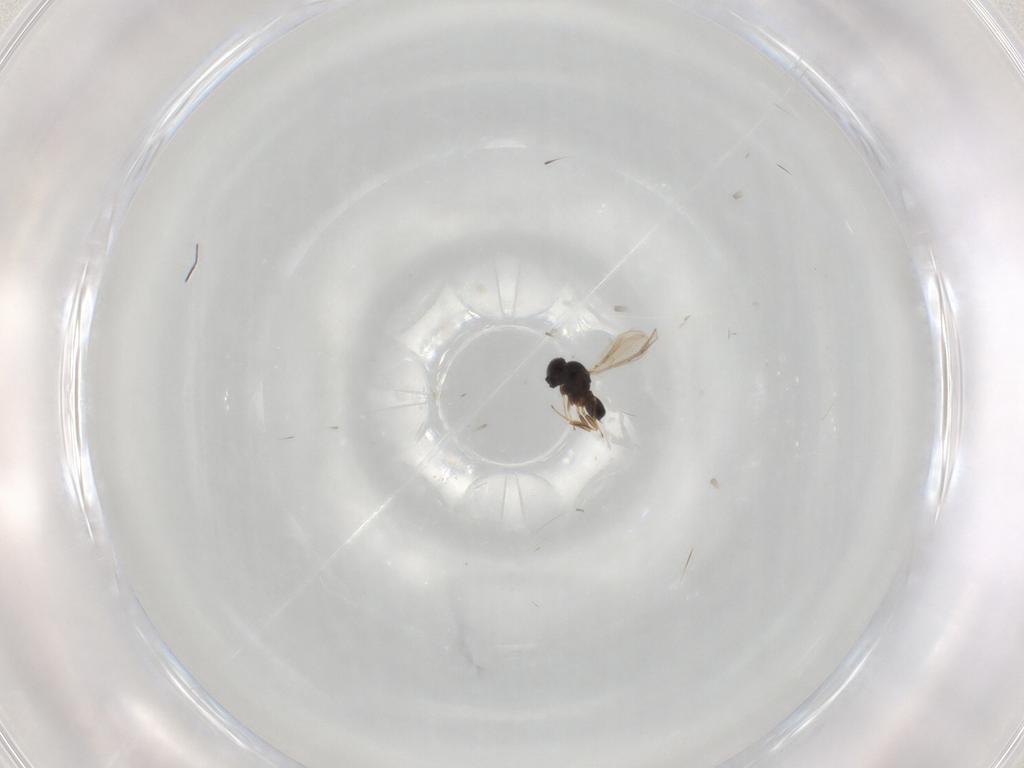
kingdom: Animalia
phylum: Arthropoda
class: Insecta
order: Hymenoptera
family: Scelionidae
